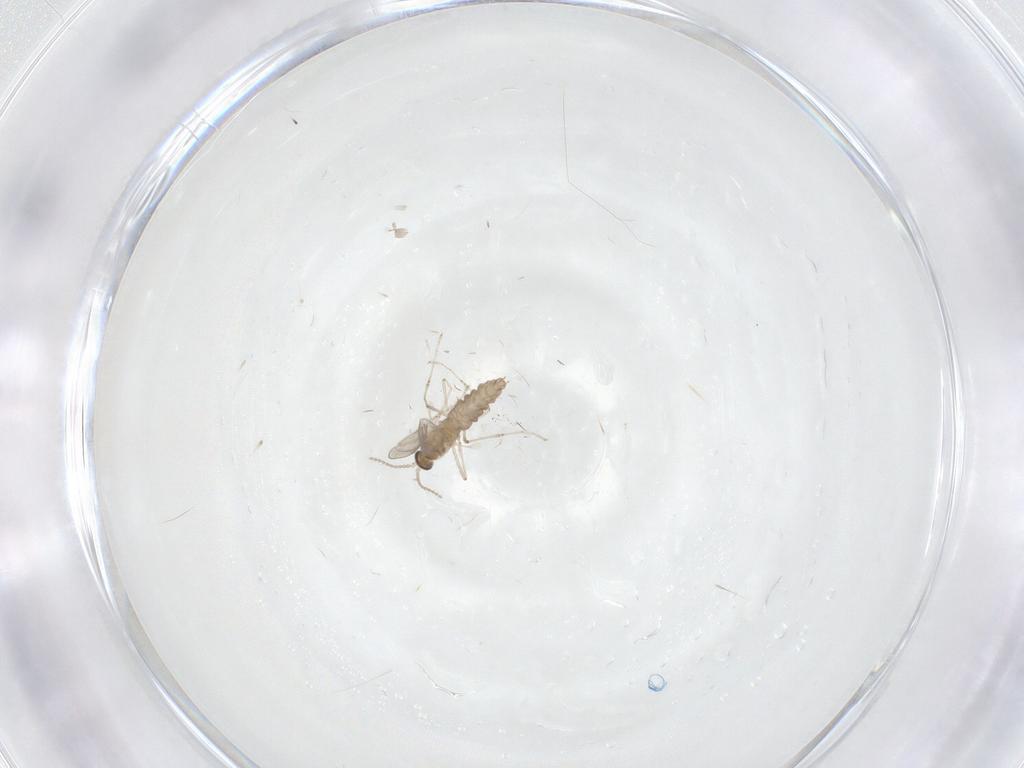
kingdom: Animalia
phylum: Arthropoda
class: Insecta
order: Diptera
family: Cecidomyiidae
